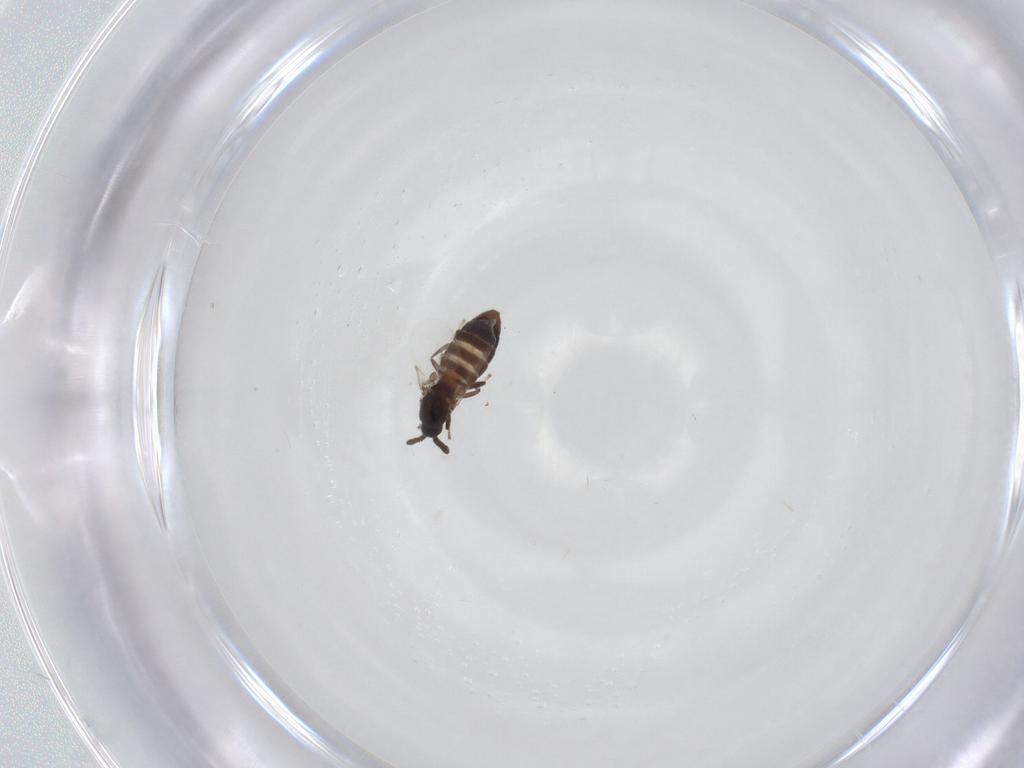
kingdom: Animalia
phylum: Arthropoda
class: Insecta
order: Diptera
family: Scatopsidae
